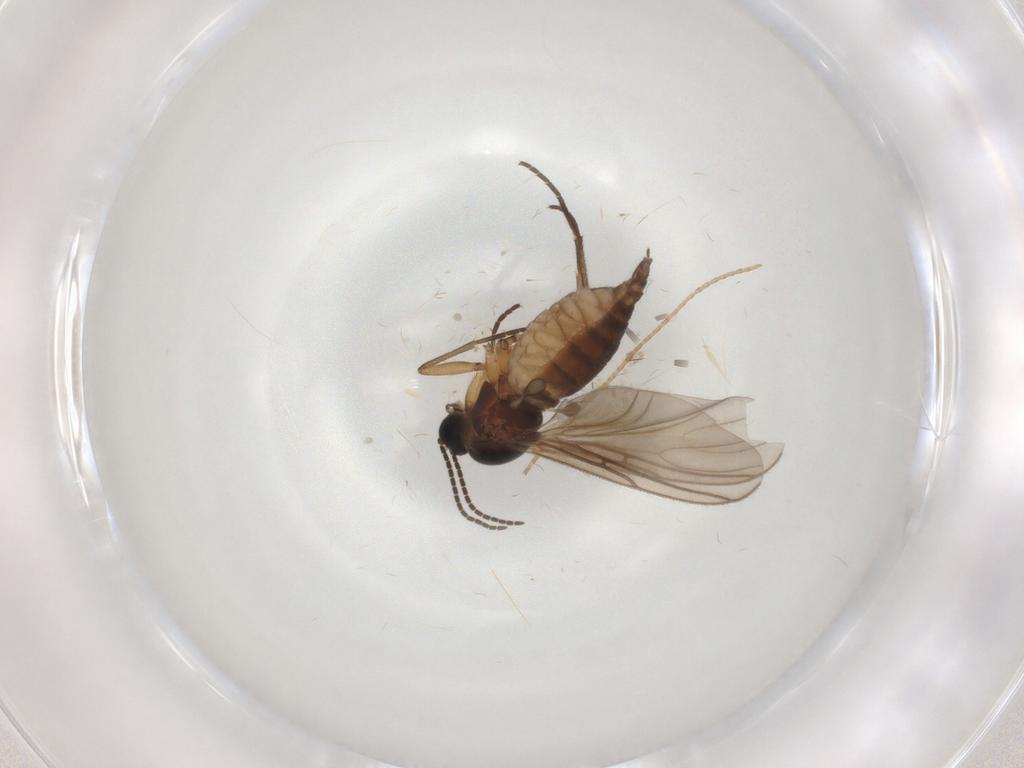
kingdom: Animalia
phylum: Arthropoda
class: Insecta
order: Diptera
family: Sciaridae
